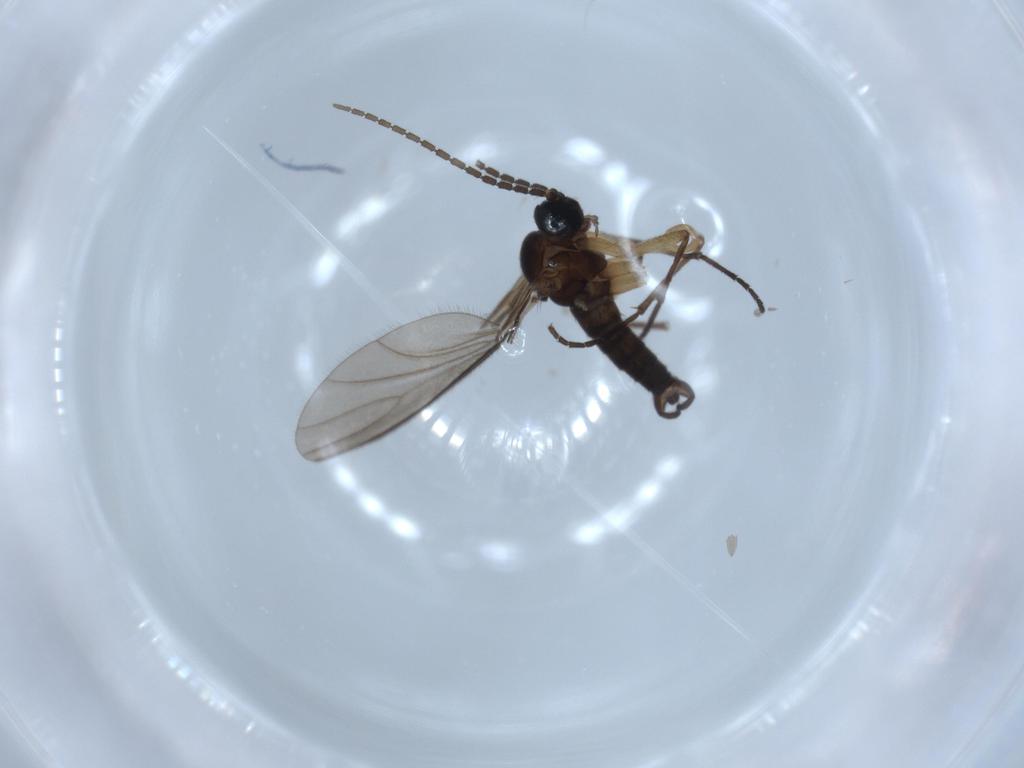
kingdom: Animalia
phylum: Arthropoda
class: Insecta
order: Diptera
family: Sciaridae
